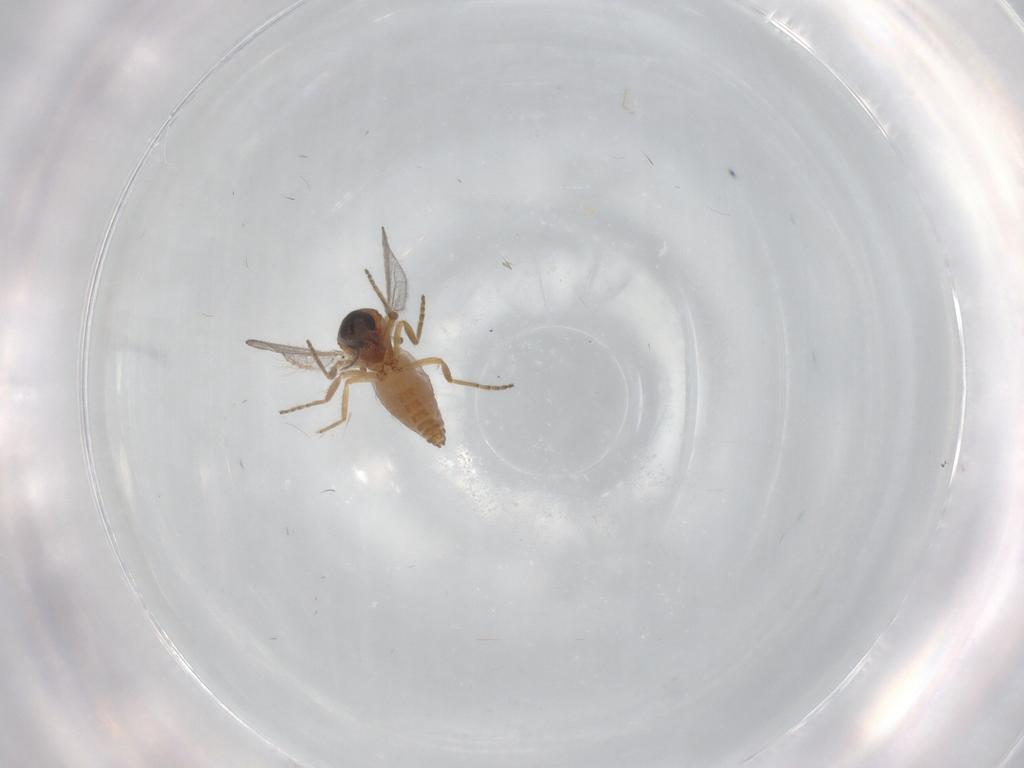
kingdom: Animalia
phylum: Arthropoda
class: Insecta
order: Diptera
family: Ceratopogonidae
